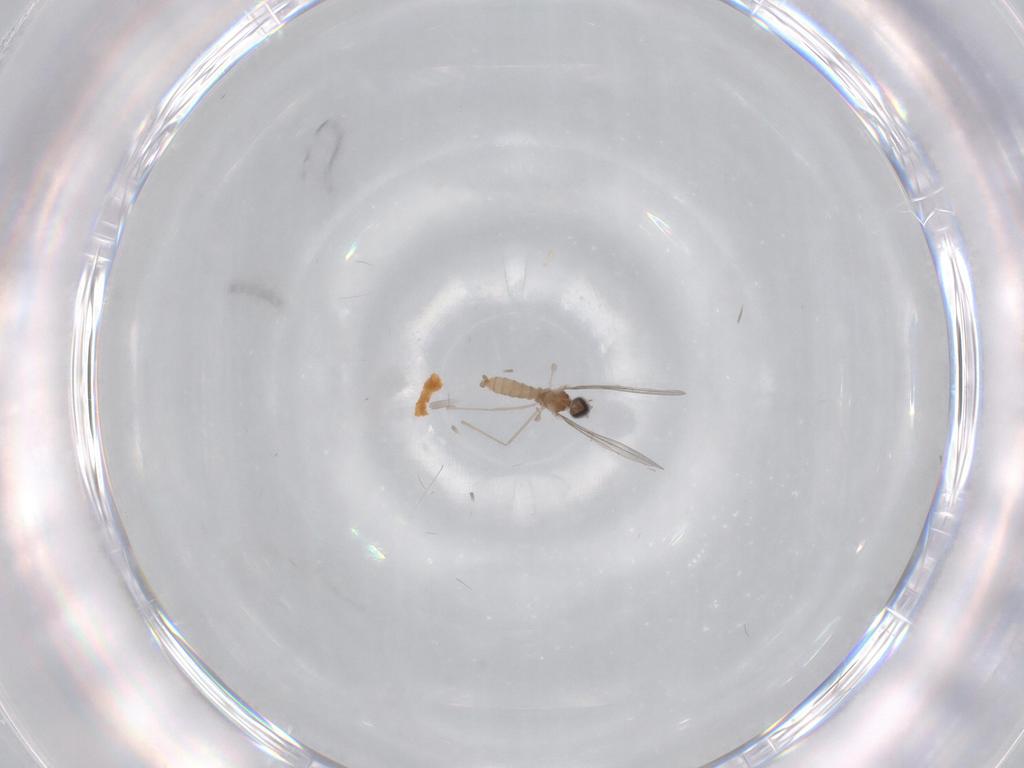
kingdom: Animalia
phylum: Arthropoda
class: Insecta
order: Diptera
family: Cecidomyiidae
